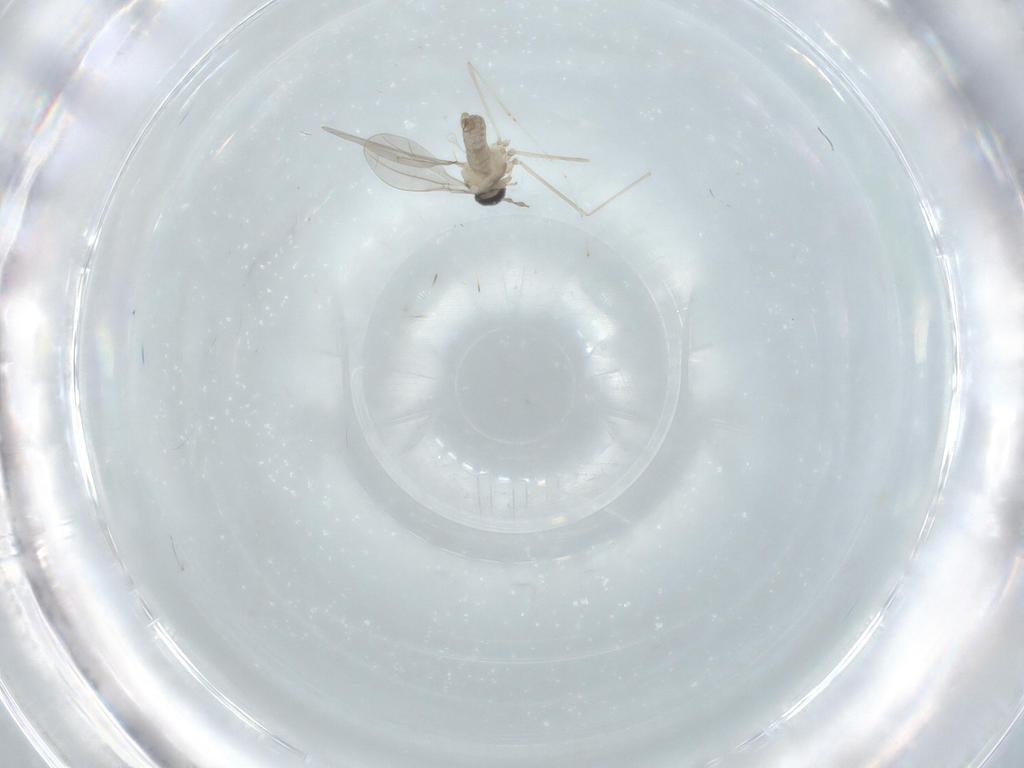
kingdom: Animalia
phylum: Arthropoda
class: Insecta
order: Diptera
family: Cecidomyiidae
